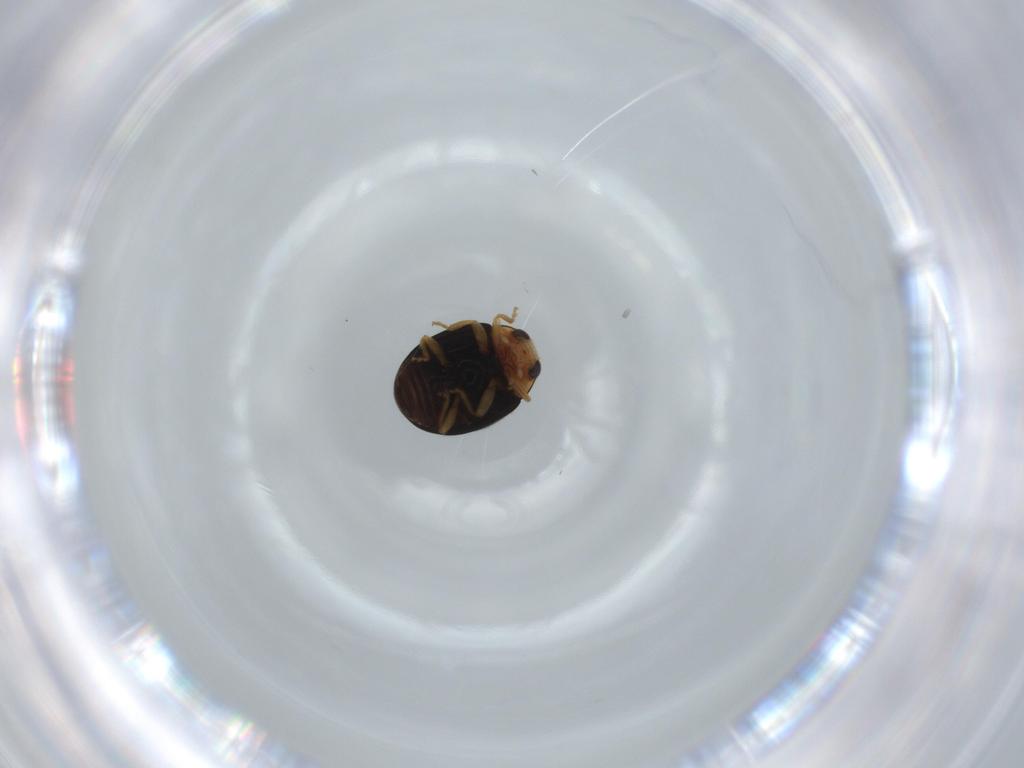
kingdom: Animalia
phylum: Arthropoda
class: Insecta
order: Coleoptera
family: Coccinellidae
